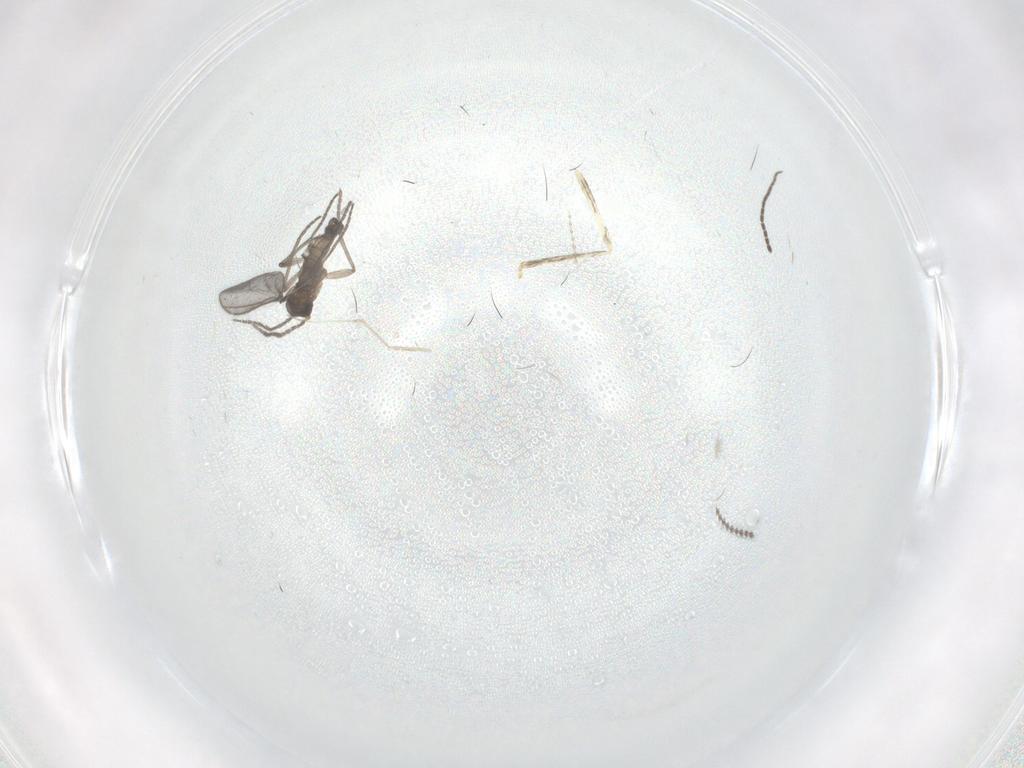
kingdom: Animalia
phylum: Arthropoda
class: Insecta
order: Diptera
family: Sciaridae
